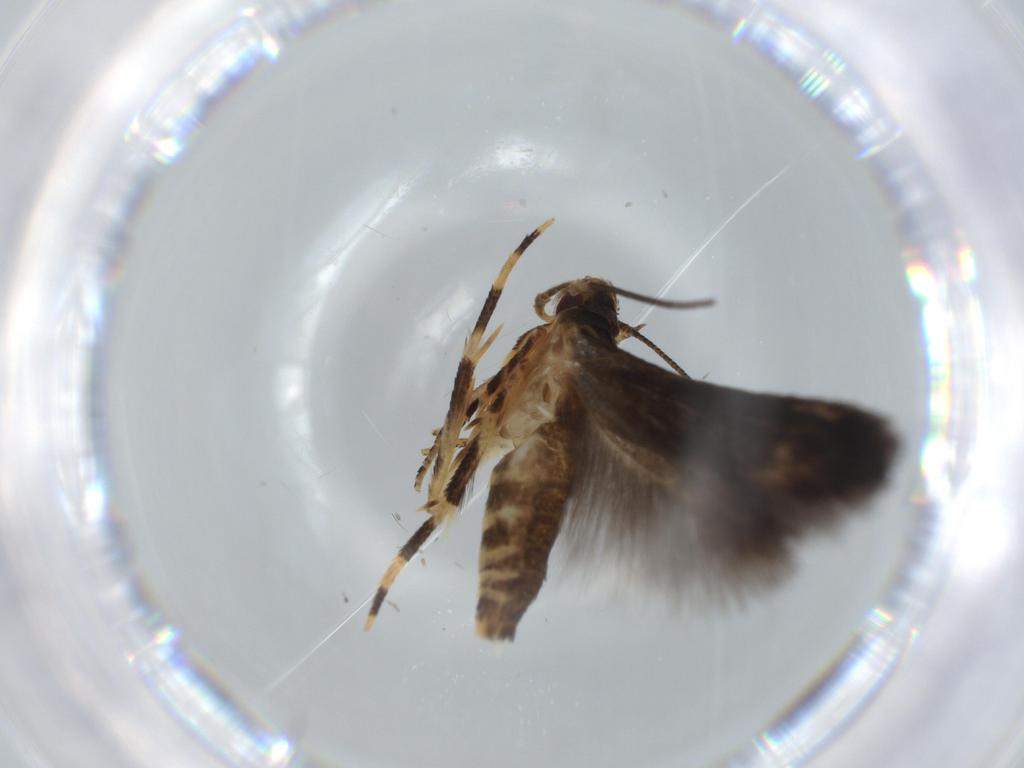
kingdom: Animalia
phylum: Arthropoda
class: Insecta
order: Lepidoptera
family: Momphidae
